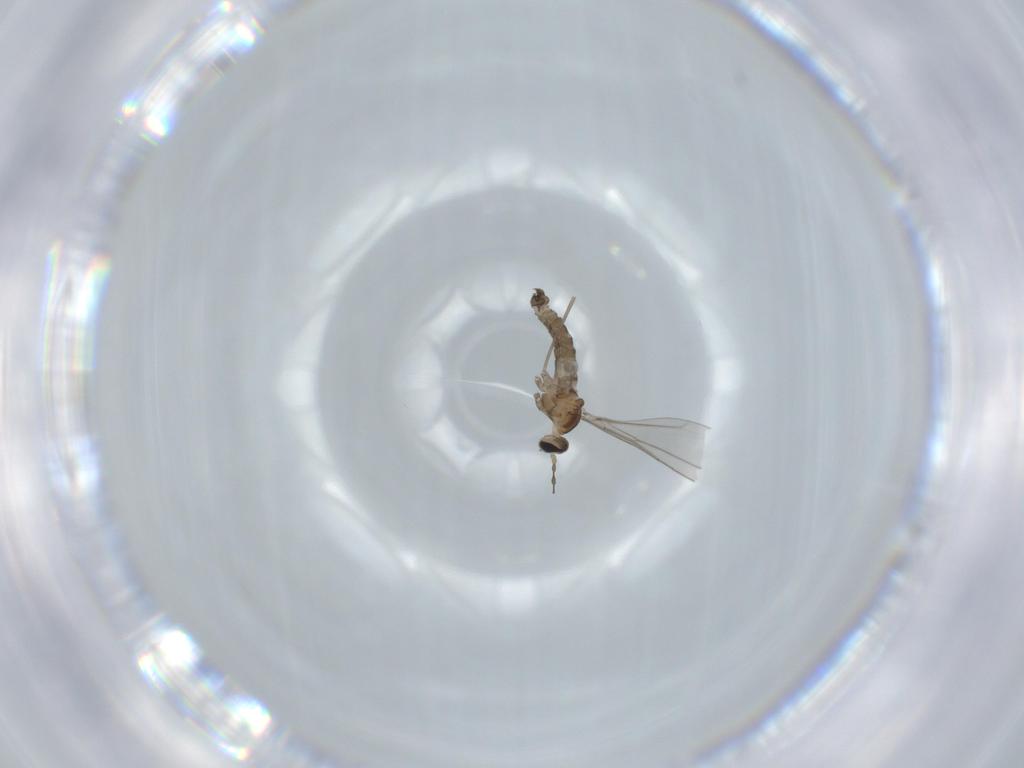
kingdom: Animalia
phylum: Arthropoda
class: Insecta
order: Diptera
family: Cecidomyiidae
